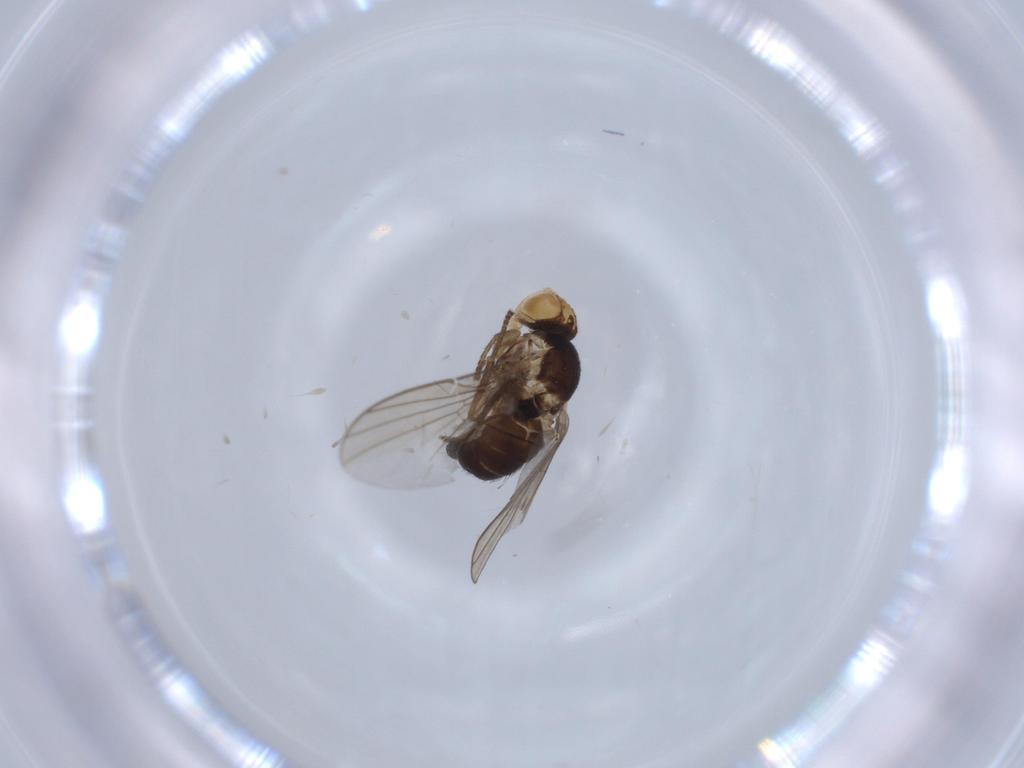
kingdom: Animalia
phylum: Arthropoda
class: Insecta
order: Diptera
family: Agromyzidae
